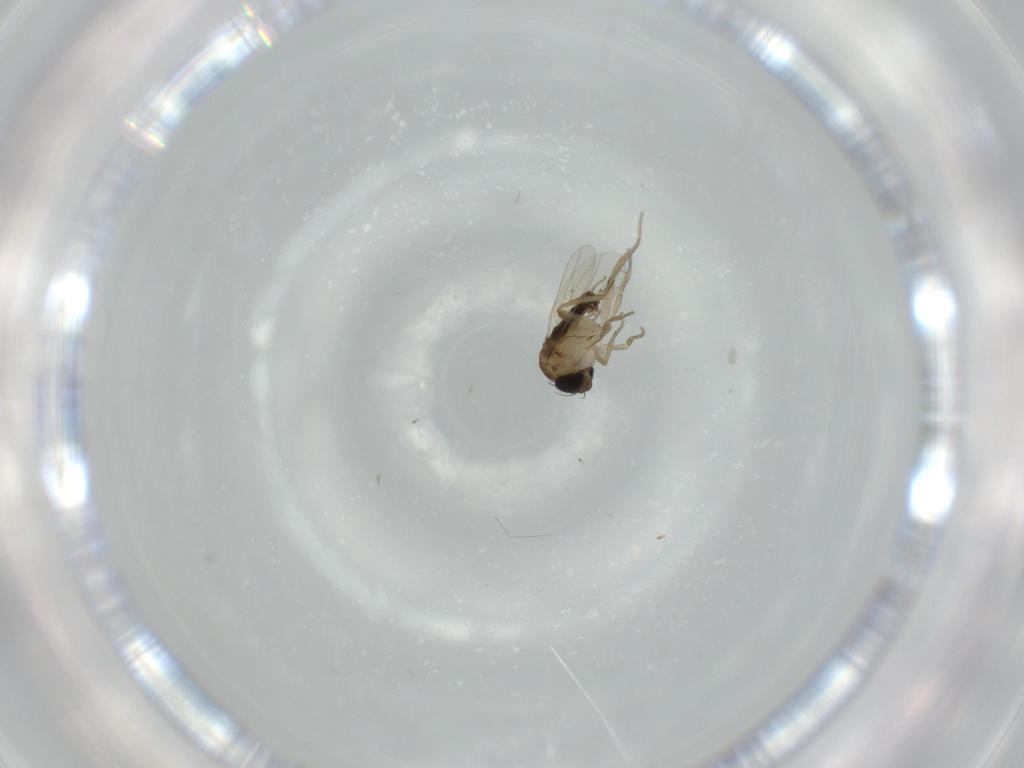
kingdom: Animalia
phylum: Arthropoda
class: Insecta
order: Diptera
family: Phoridae
